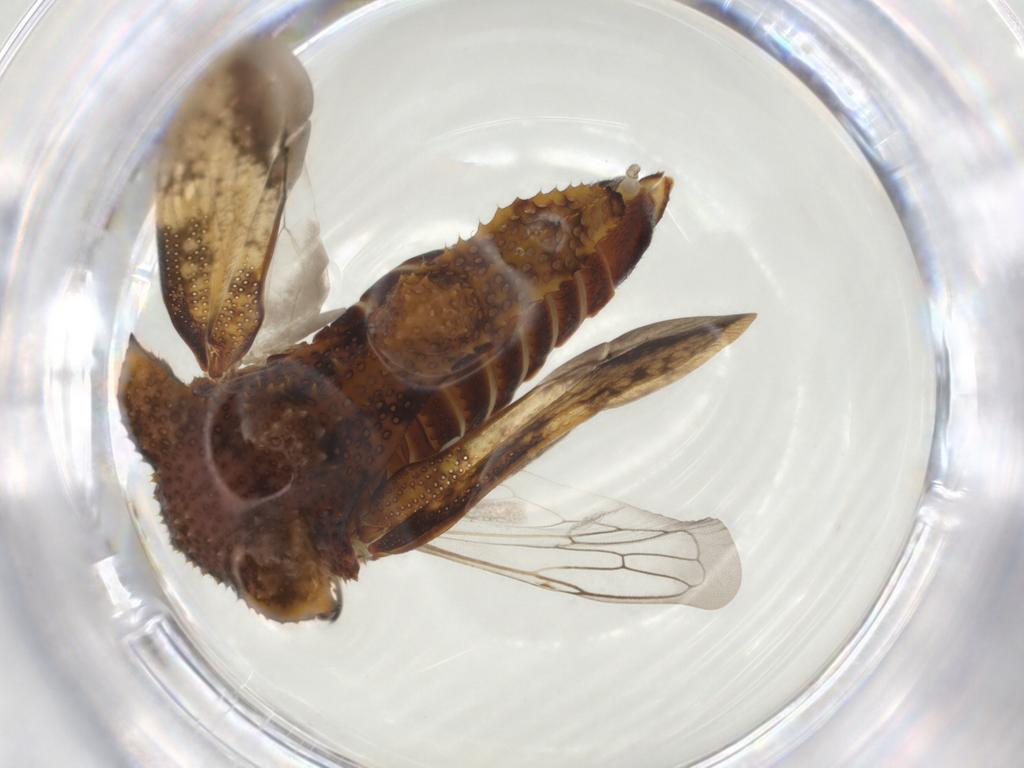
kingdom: Animalia
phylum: Arthropoda
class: Insecta
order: Hemiptera
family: Membracidae
